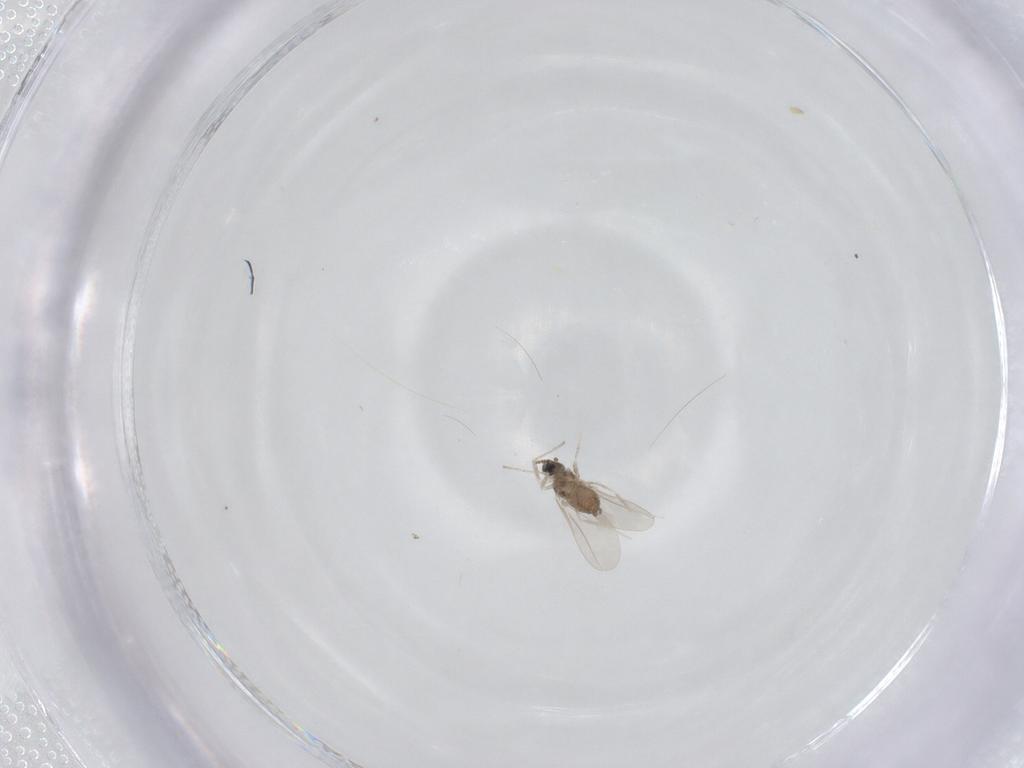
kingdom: Animalia
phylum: Arthropoda
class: Insecta
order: Diptera
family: Cecidomyiidae
